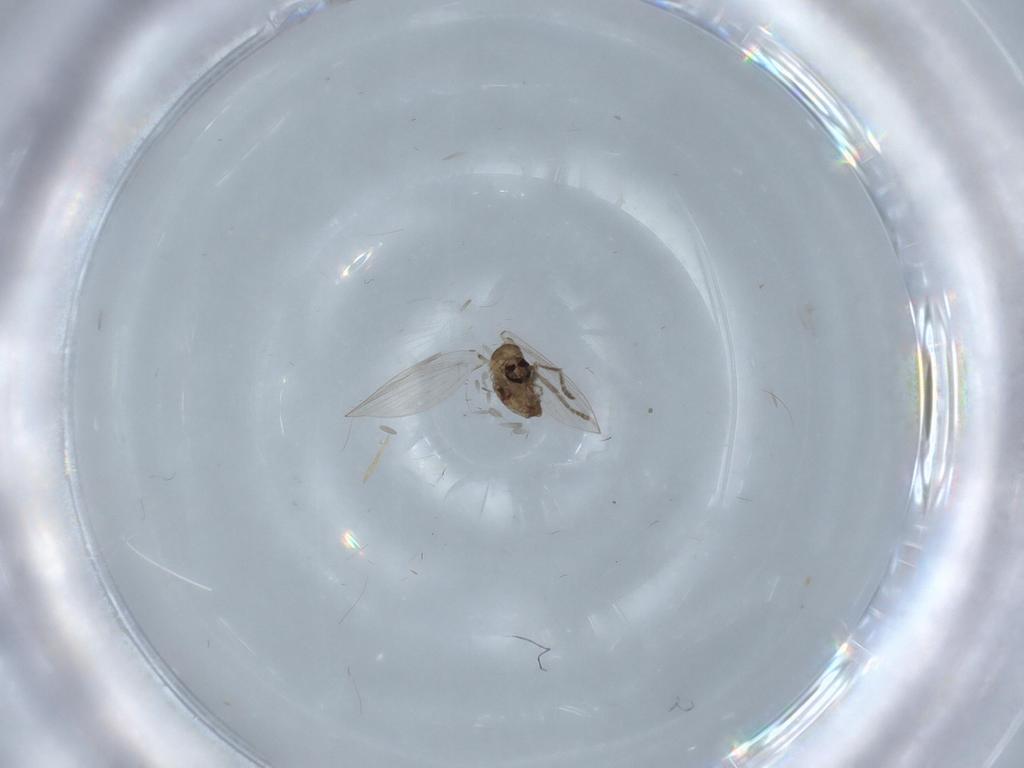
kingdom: Animalia
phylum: Arthropoda
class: Insecta
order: Diptera
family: Psychodidae
